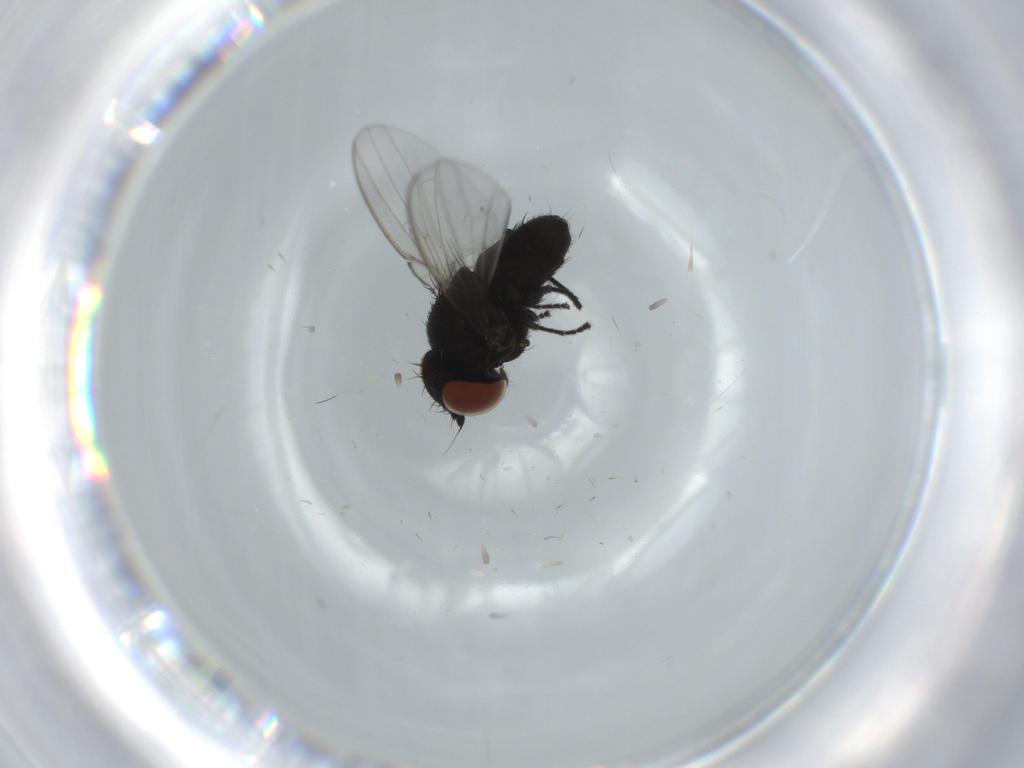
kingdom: Animalia
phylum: Arthropoda
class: Insecta
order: Diptera
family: Milichiidae
